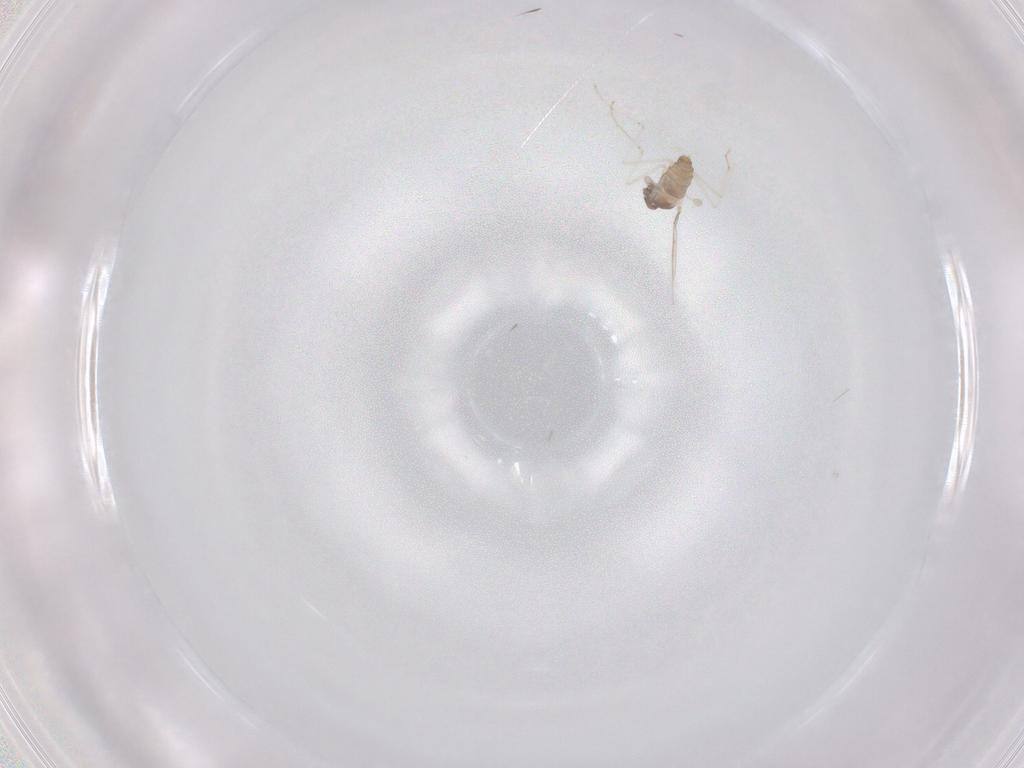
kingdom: Animalia
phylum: Arthropoda
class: Insecta
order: Diptera
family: Cecidomyiidae
